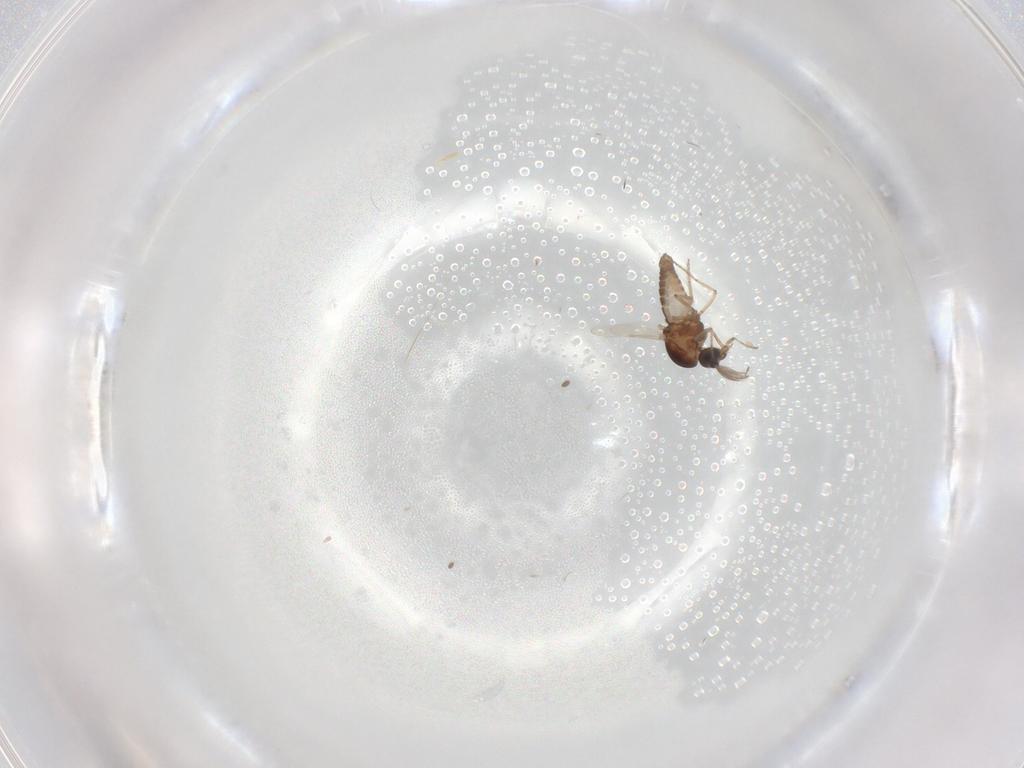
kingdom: Animalia
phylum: Arthropoda
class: Insecta
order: Diptera
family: Ceratopogonidae
